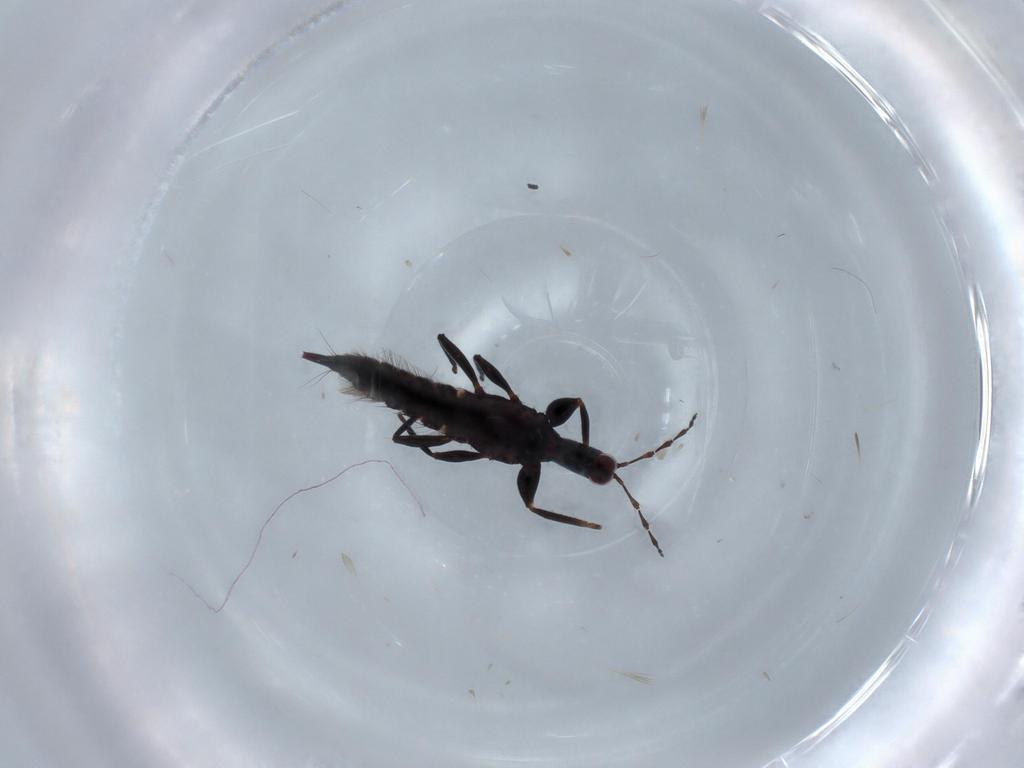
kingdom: Animalia
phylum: Arthropoda
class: Insecta
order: Thysanoptera
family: Phlaeothripidae
